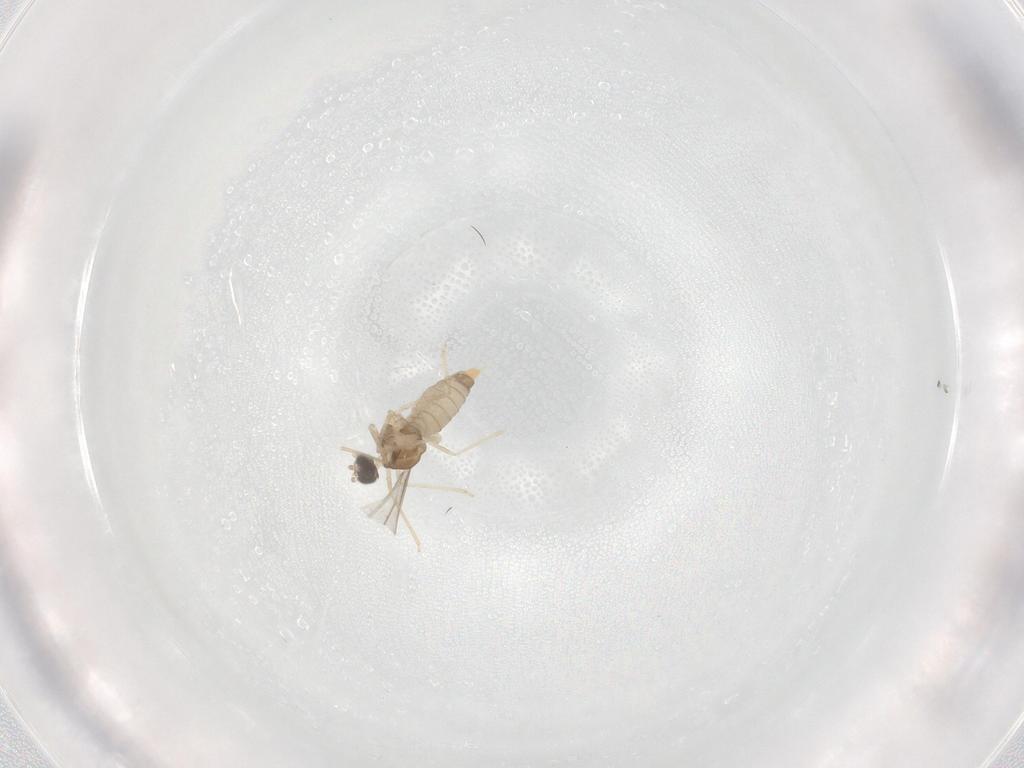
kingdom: Animalia
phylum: Arthropoda
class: Insecta
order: Diptera
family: Cecidomyiidae
